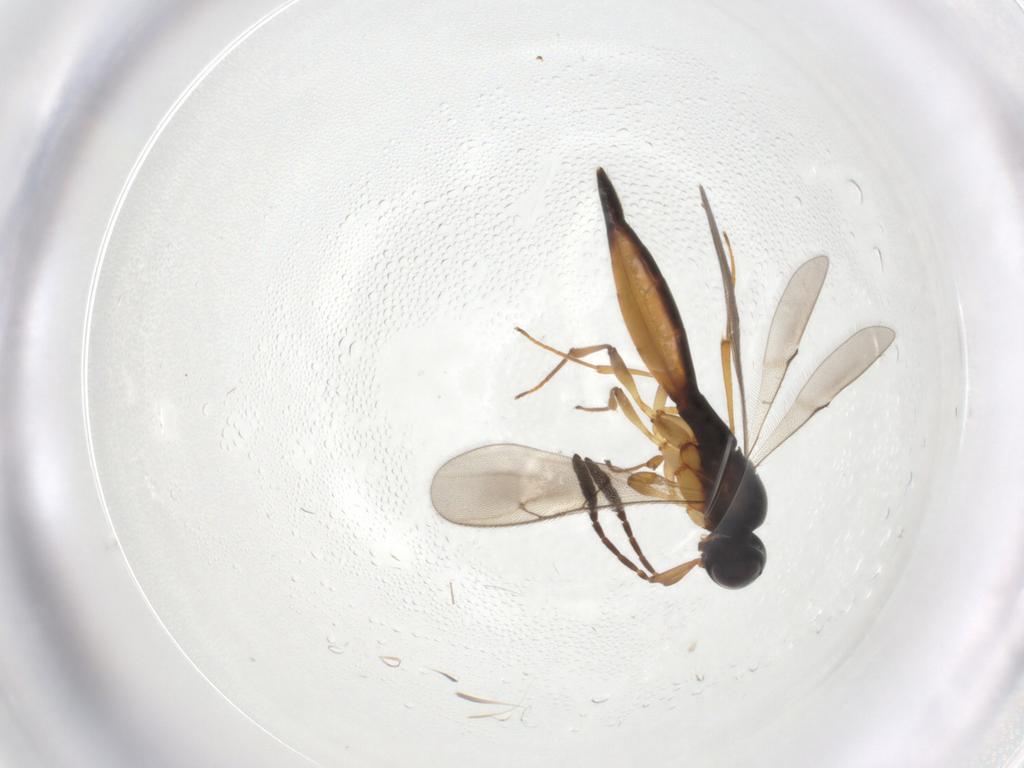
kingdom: Animalia
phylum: Arthropoda
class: Insecta
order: Hymenoptera
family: Scelionidae
